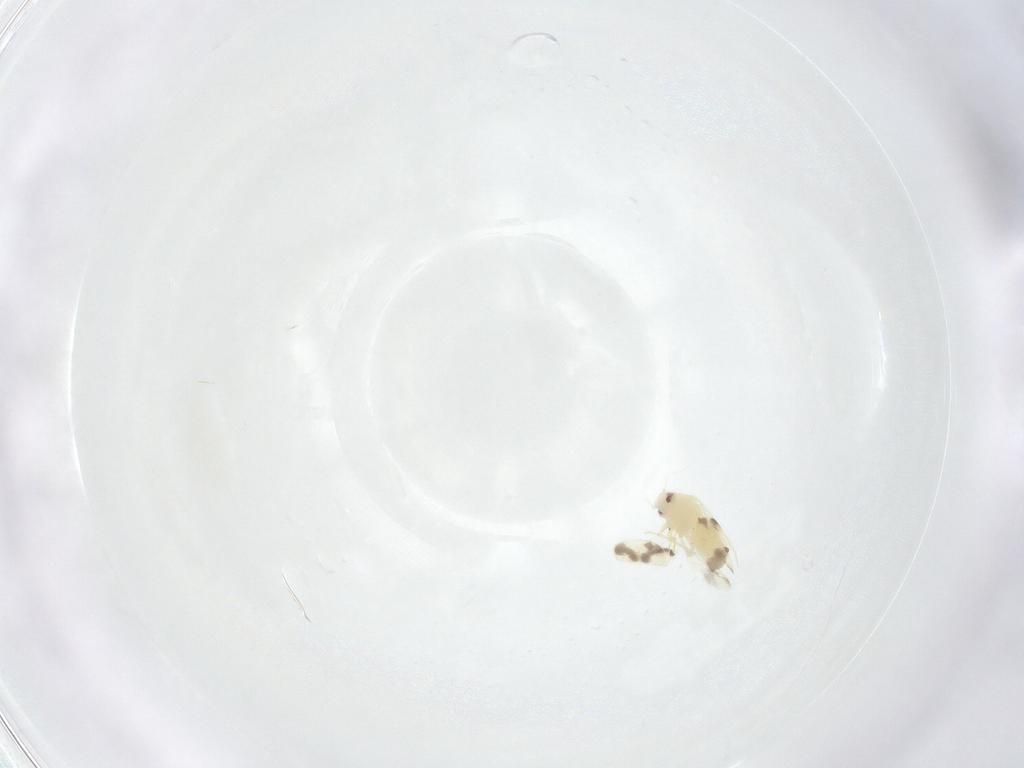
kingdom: Animalia
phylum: Arthropoda
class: Insecta
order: Hemiptera
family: Aleyrodidae
